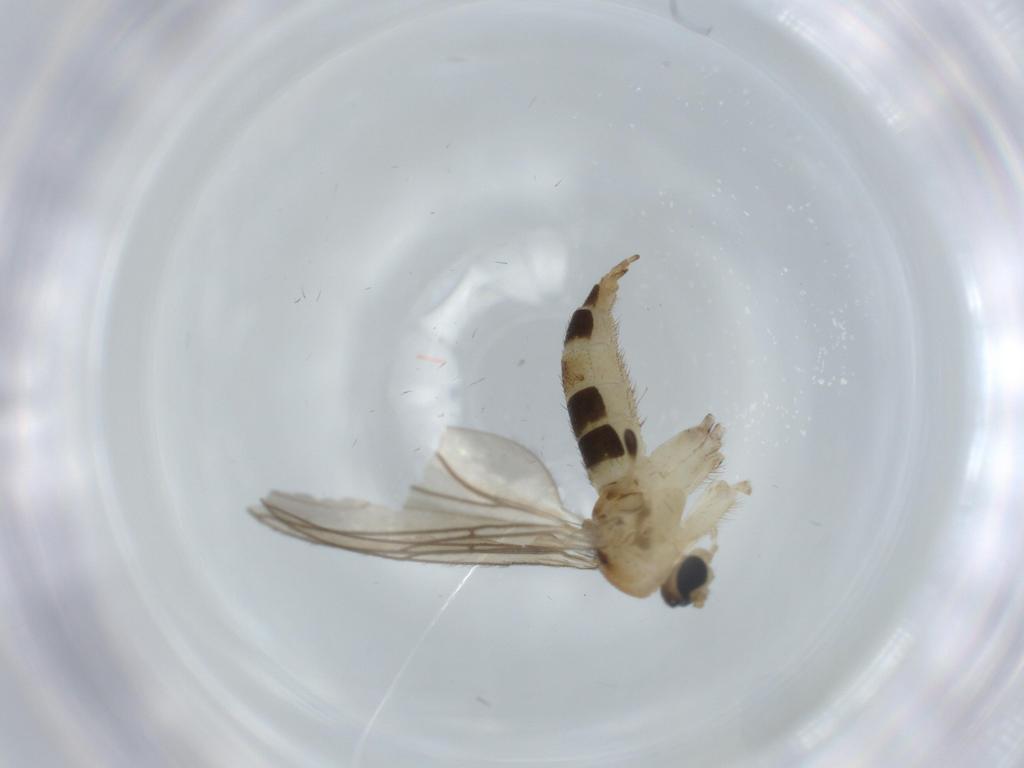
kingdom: Animalia
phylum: Arthropoda
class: Insecta
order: Diptera
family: Sciaridae
